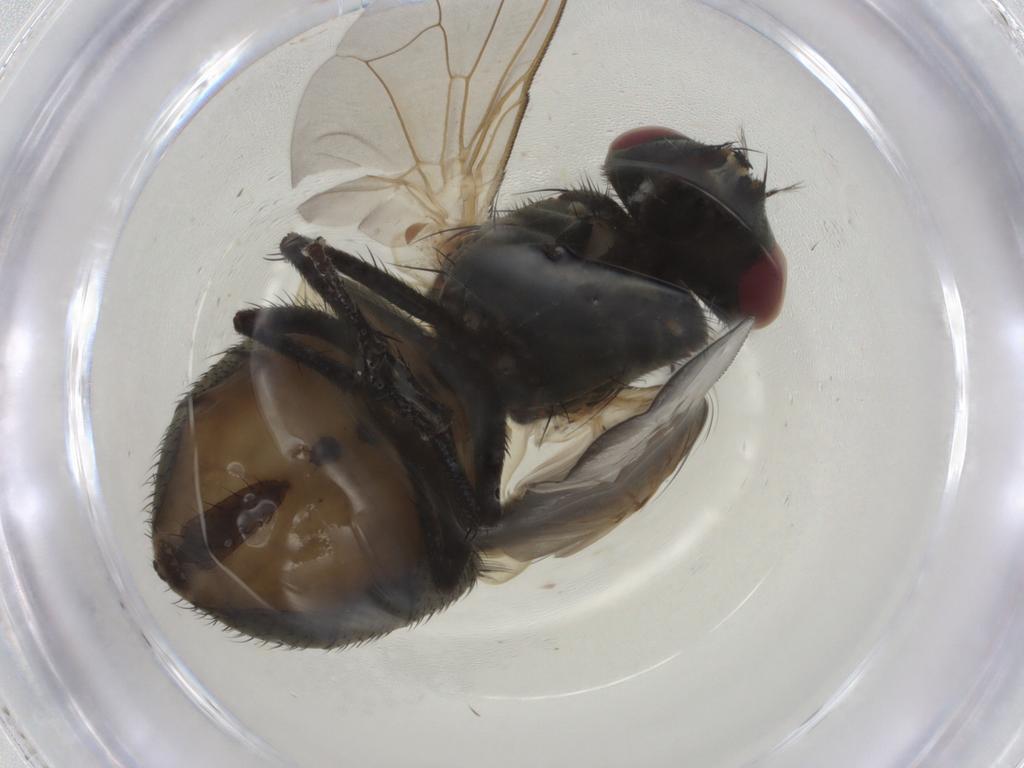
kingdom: Animalia
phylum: Arthropoda
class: Insecta
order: Diptera
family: Muscidae
